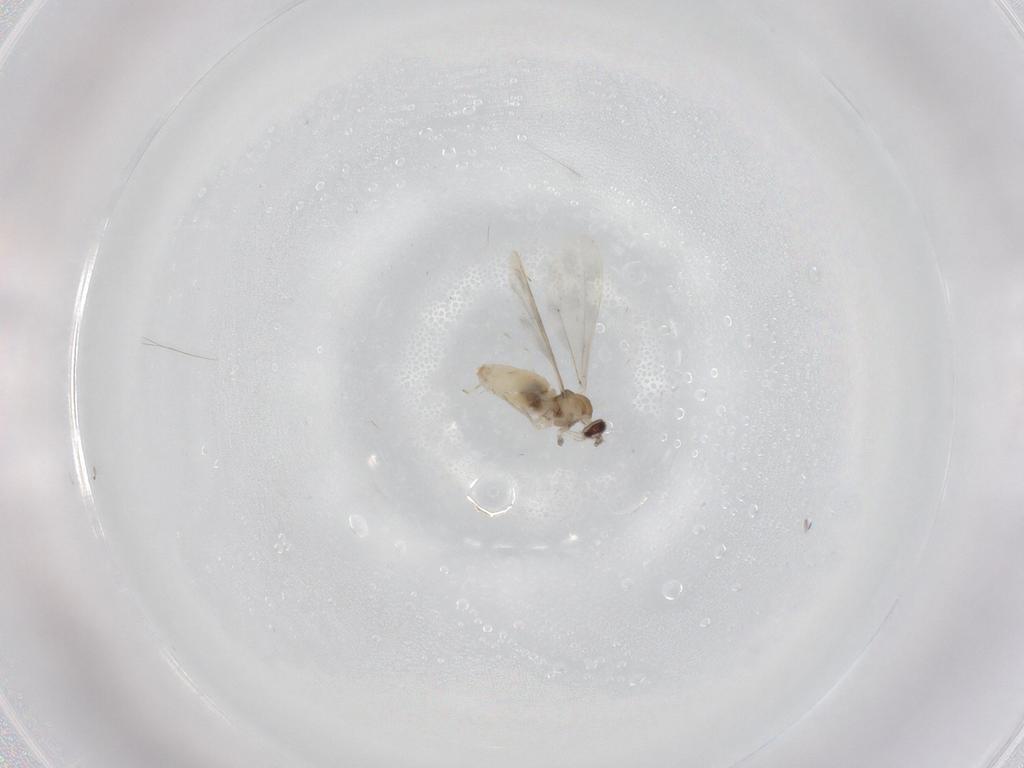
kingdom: Animalia
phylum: Arthropoda
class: Insecta
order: Diptera
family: Cecidomyiidae
